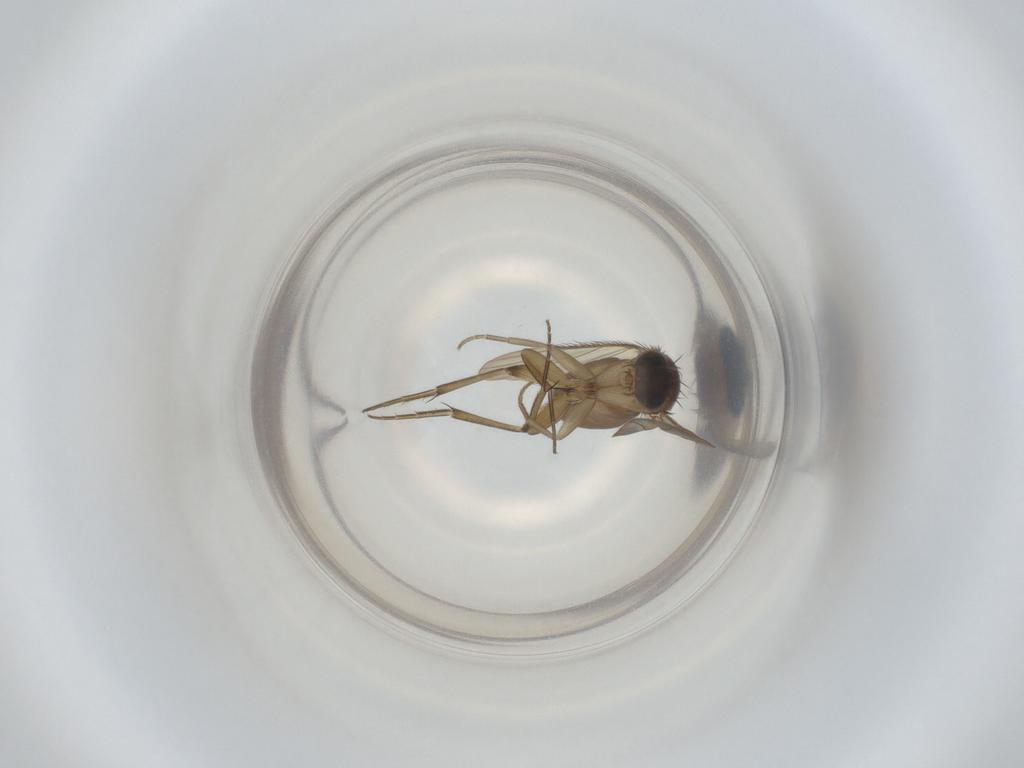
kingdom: Animalia
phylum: Arthropoda
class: Insecta
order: Diptera
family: Phoridae
